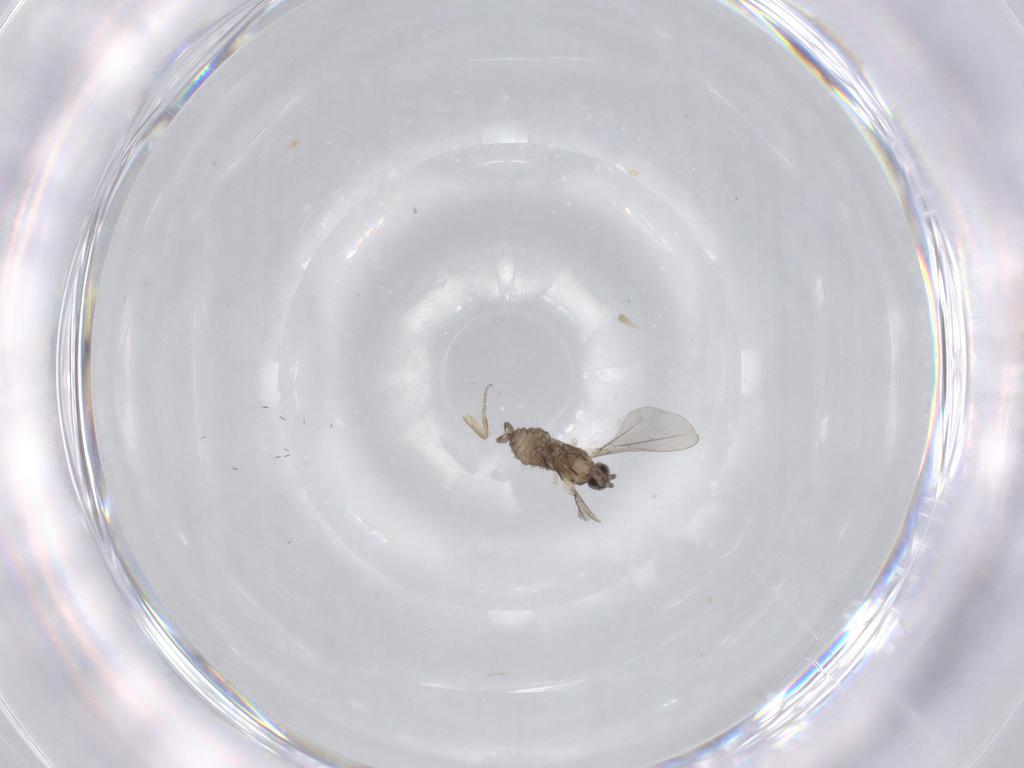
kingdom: Animalia
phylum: Arthropoda
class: Insecta
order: Diptera
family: Cecidomyiidae
